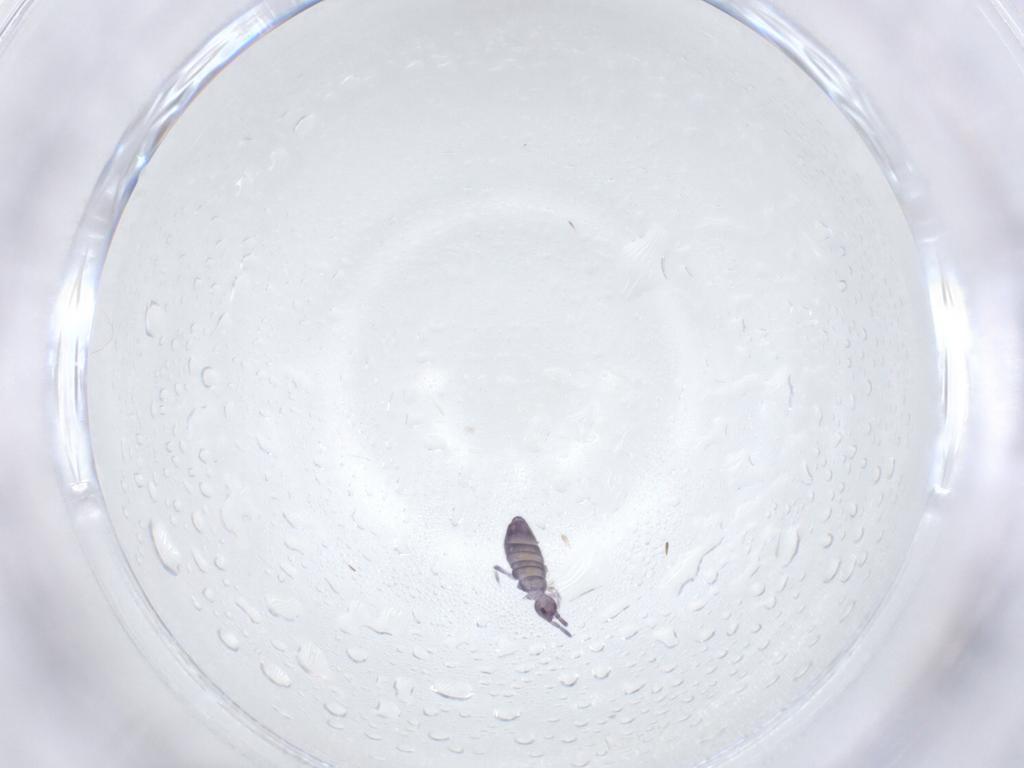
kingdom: Animalia
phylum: Arthropoda
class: Collembola
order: Entomobryomorpha
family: Entomobryidae
